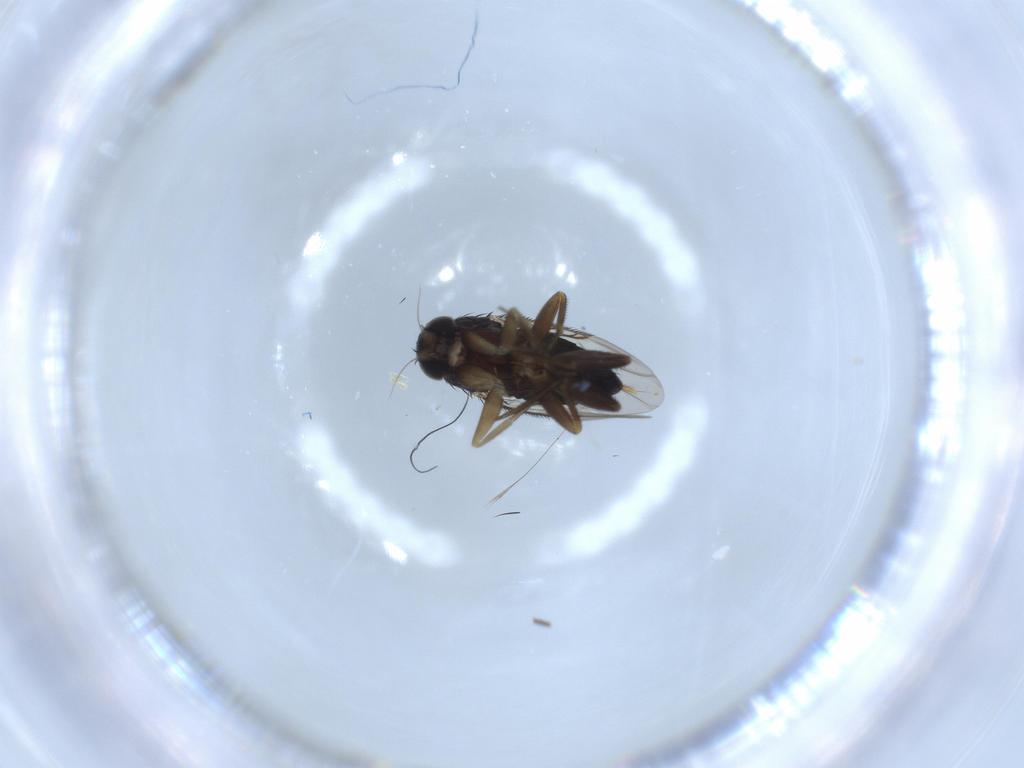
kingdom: Animalia
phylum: Arthropoda
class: Insecta
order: Diptera
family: Phoridae
